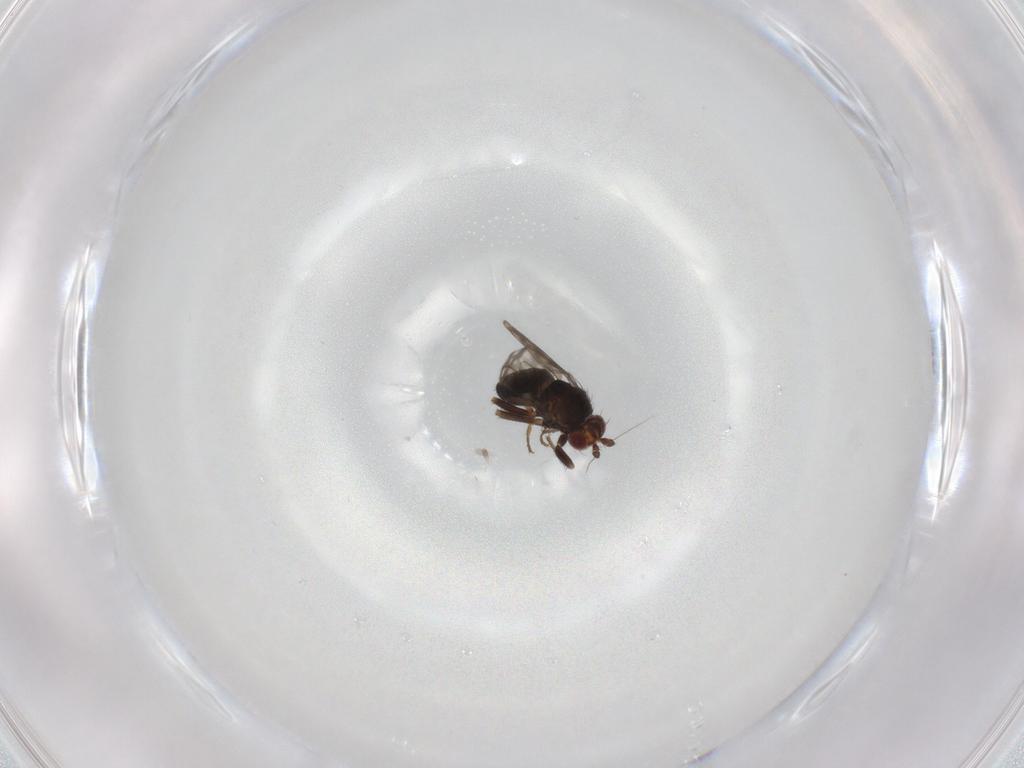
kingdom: Animalia
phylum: Arthropoda
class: Insecta
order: Diptera
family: Sphaeroceridae
